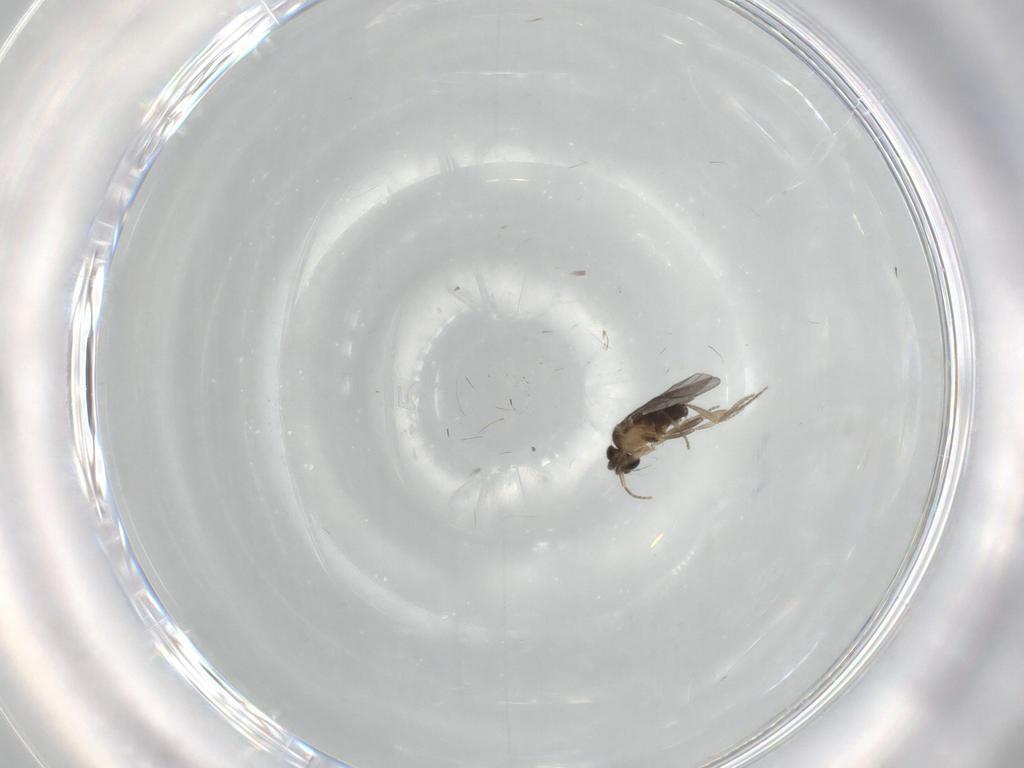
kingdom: Animalia
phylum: Arthropoda
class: Insecta
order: Diptera
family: Ceratopogonidae
